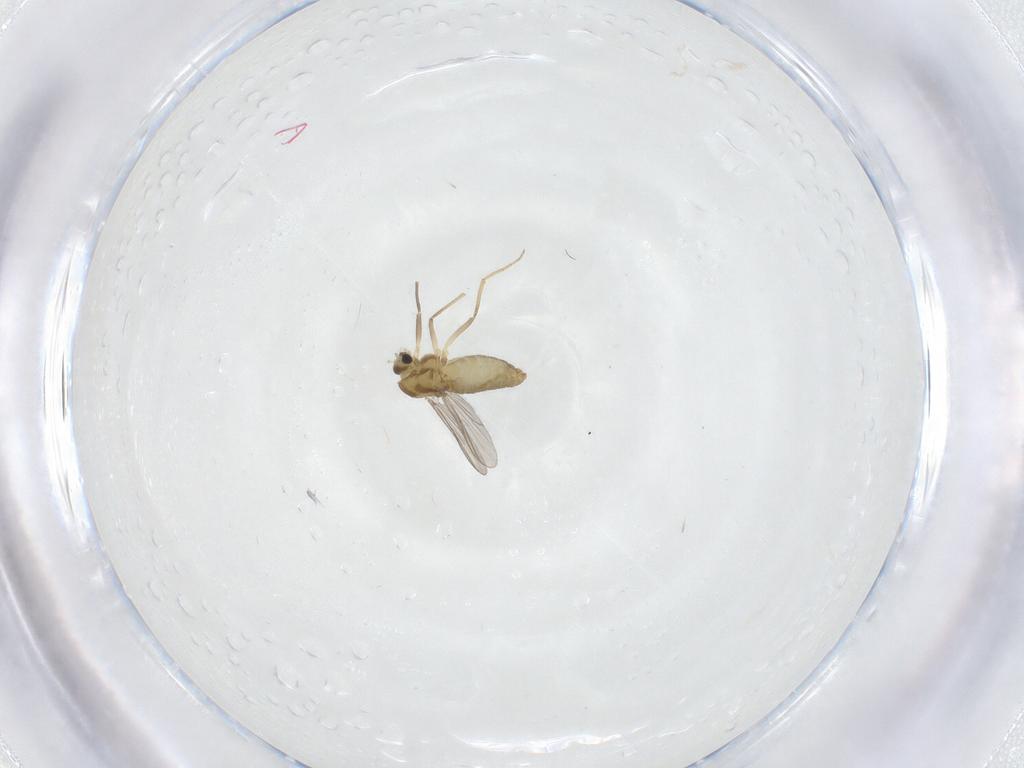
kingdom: Animalia
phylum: Arthropoda
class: Insecta
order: Diptera
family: Chironomidae
